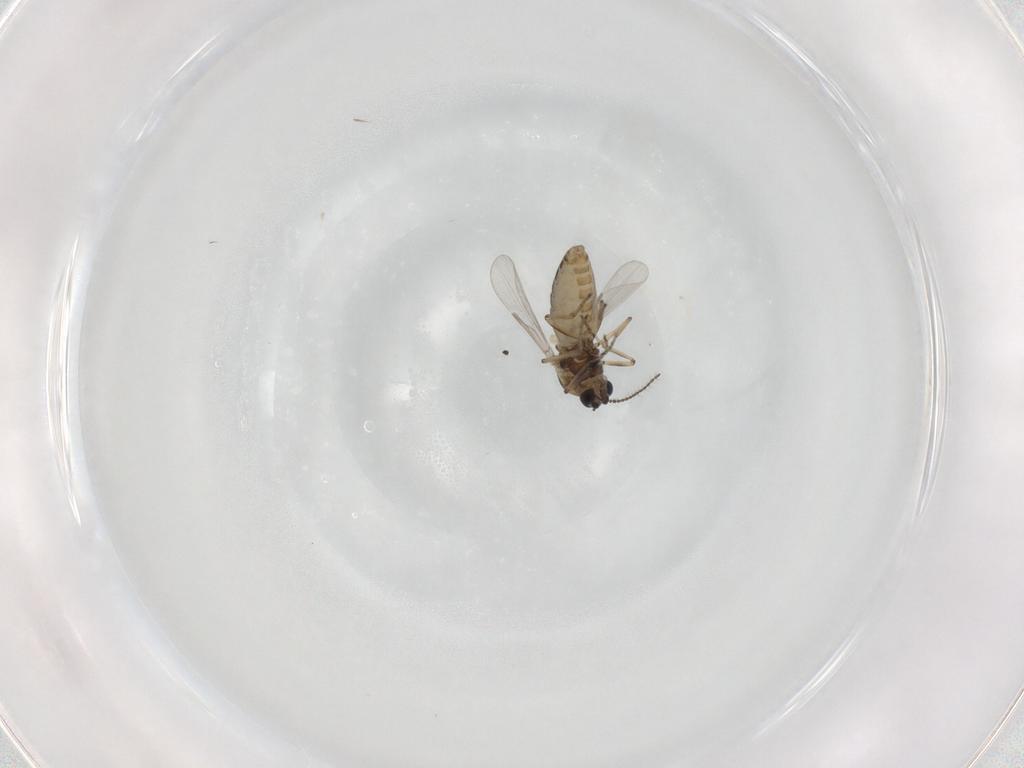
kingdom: Animalia
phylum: Arthropoda
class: Insecta
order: Diptera
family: Ceratopogonidae
